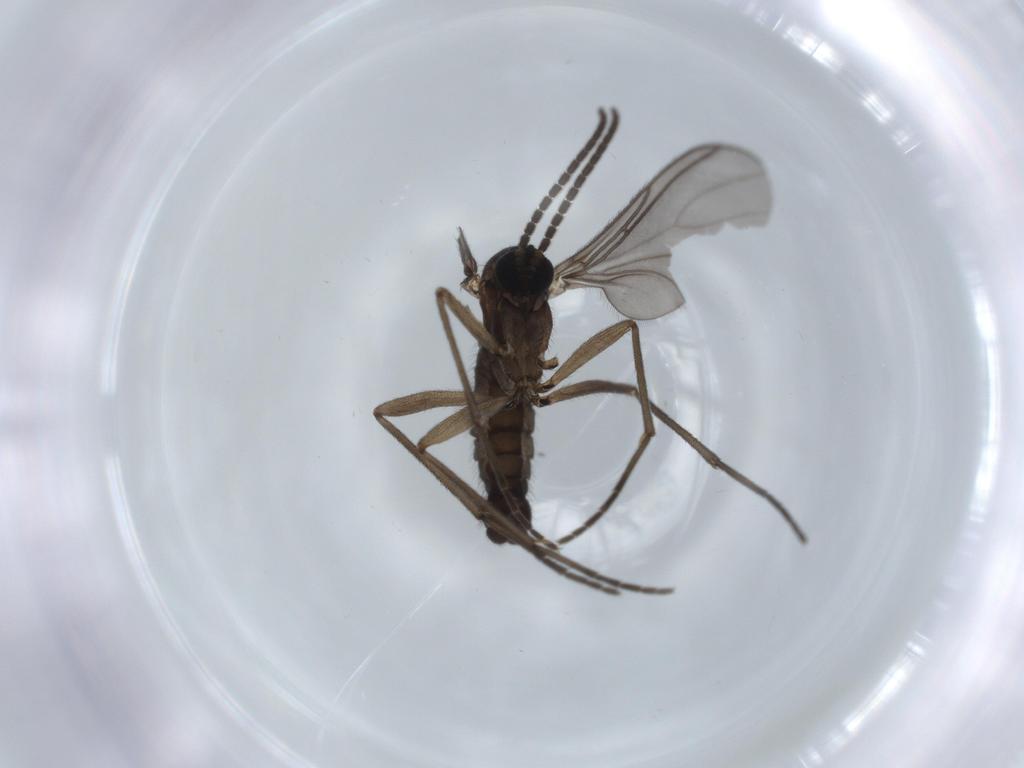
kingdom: Animalia
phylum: Arthropoda
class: Insecta
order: Diptera
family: Sciaridae
